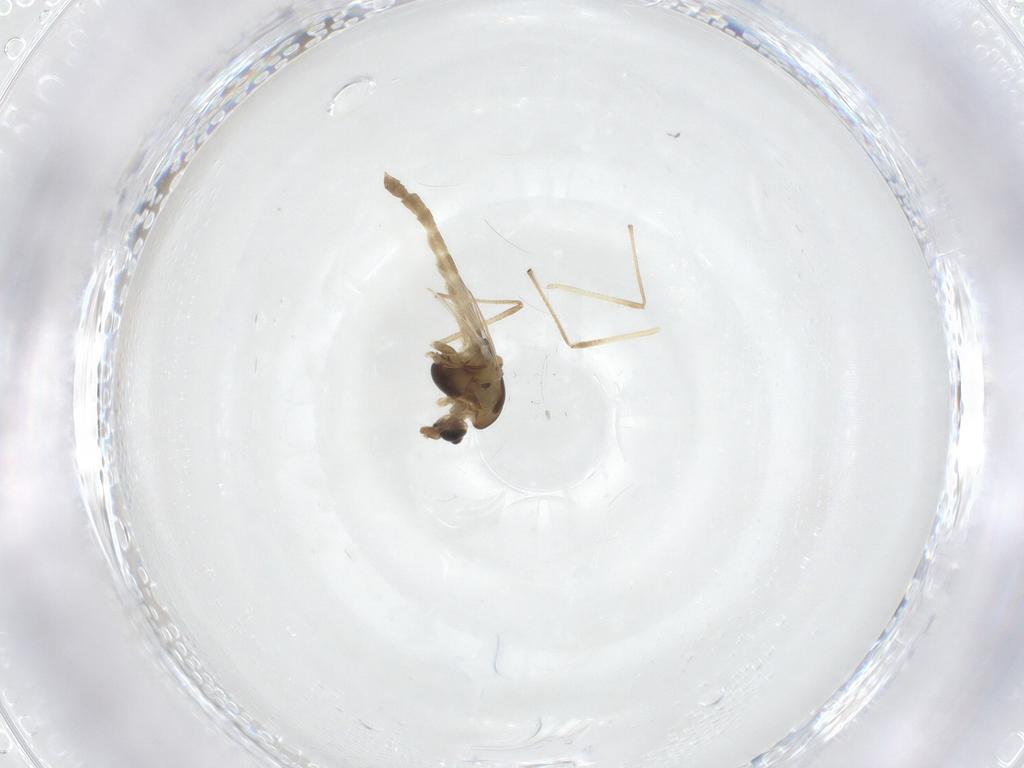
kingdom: Animalia
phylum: Arthropoda
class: Insecta
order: Diptera
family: Chironomidae
